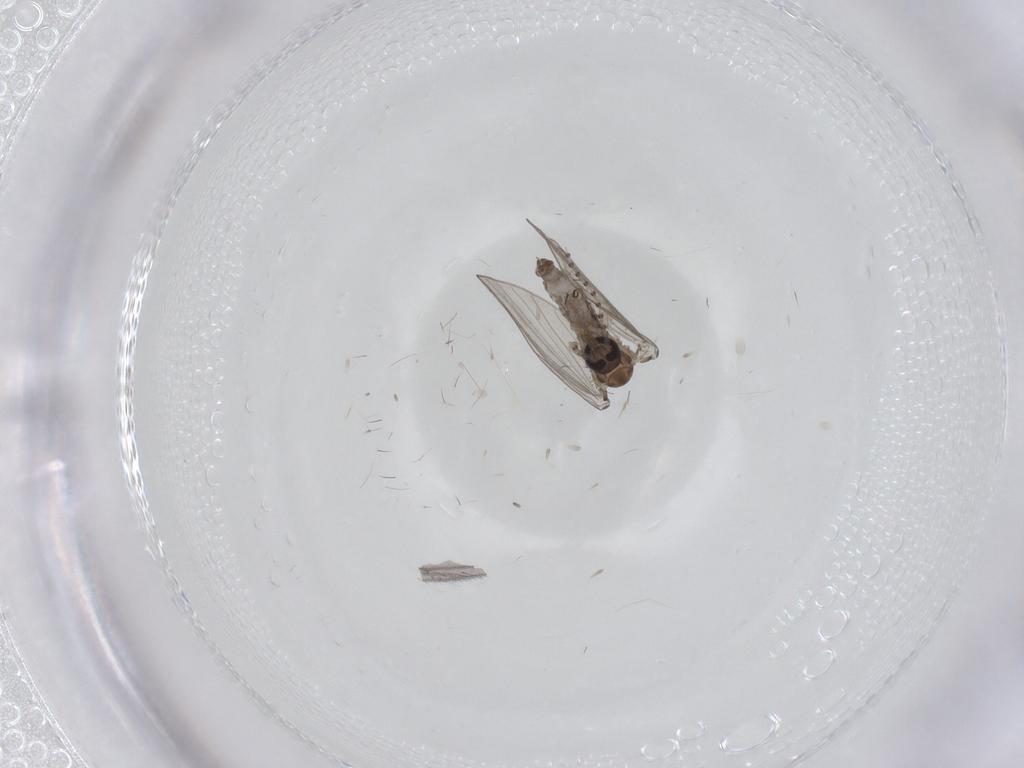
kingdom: Animalia
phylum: Arthropoda
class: Insecta
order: Diptera
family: Psychodidae
